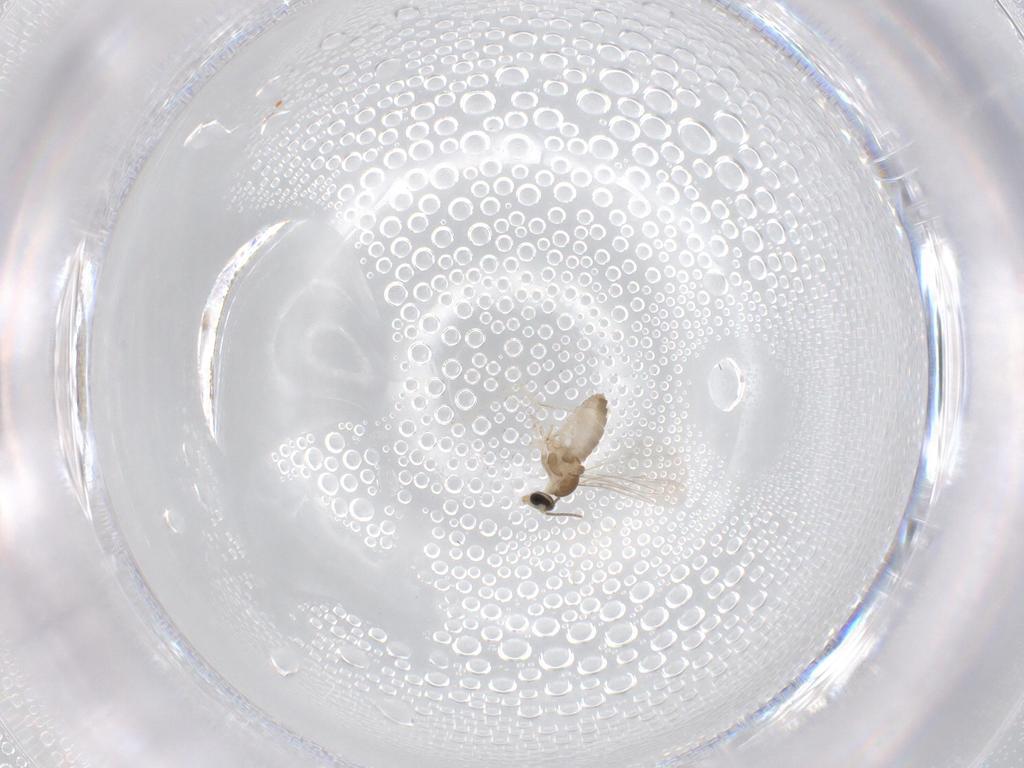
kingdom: Animalia
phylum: Arthropoda
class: Insecta
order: Diptera
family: Cecidomyiidae
